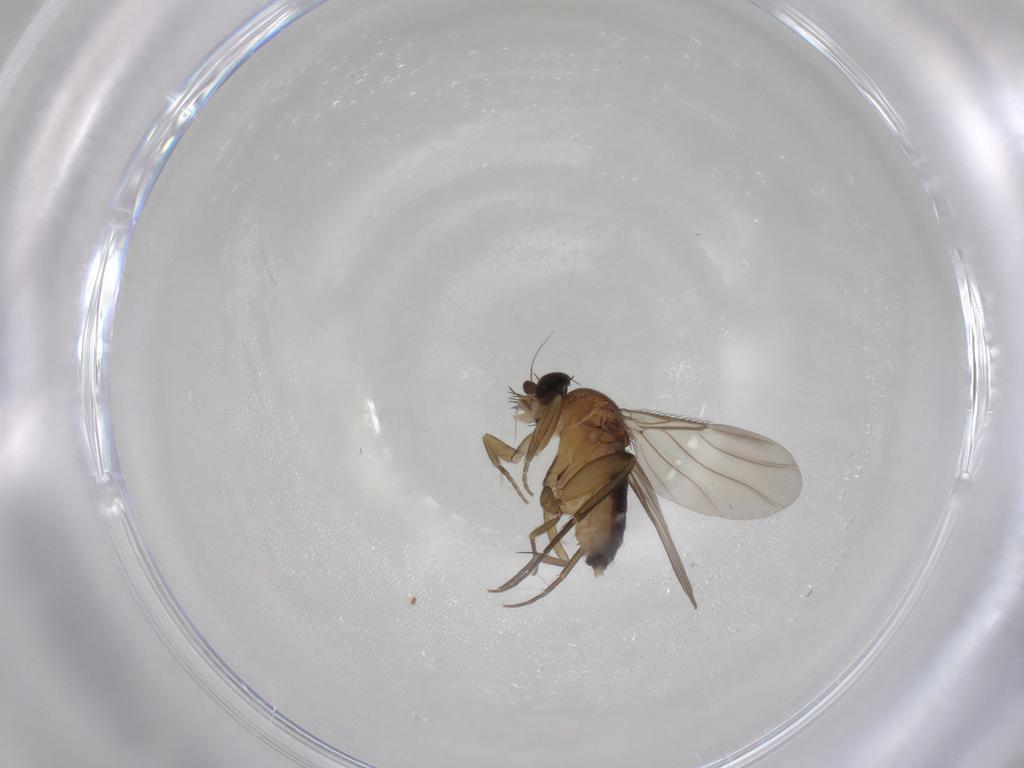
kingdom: Animalia
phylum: Arthropoda
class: Insecta
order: Diptera
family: Phoridae
